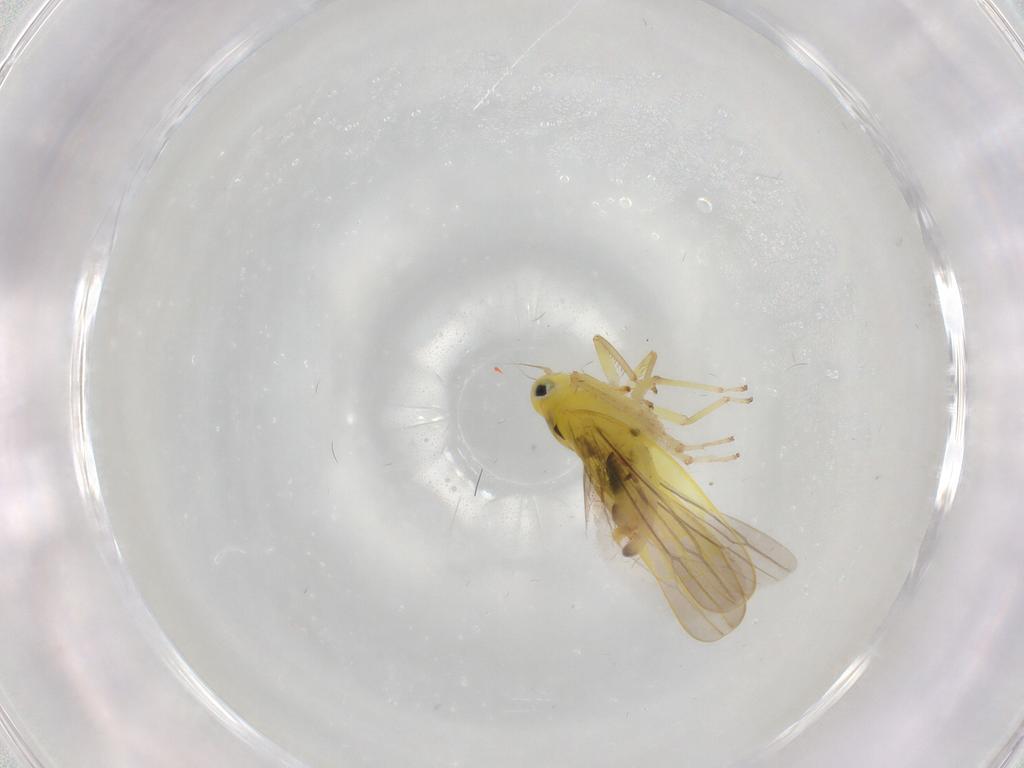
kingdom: Animalia
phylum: Arthropoda
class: Insecta
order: Hemiptera
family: Cicadellidae
